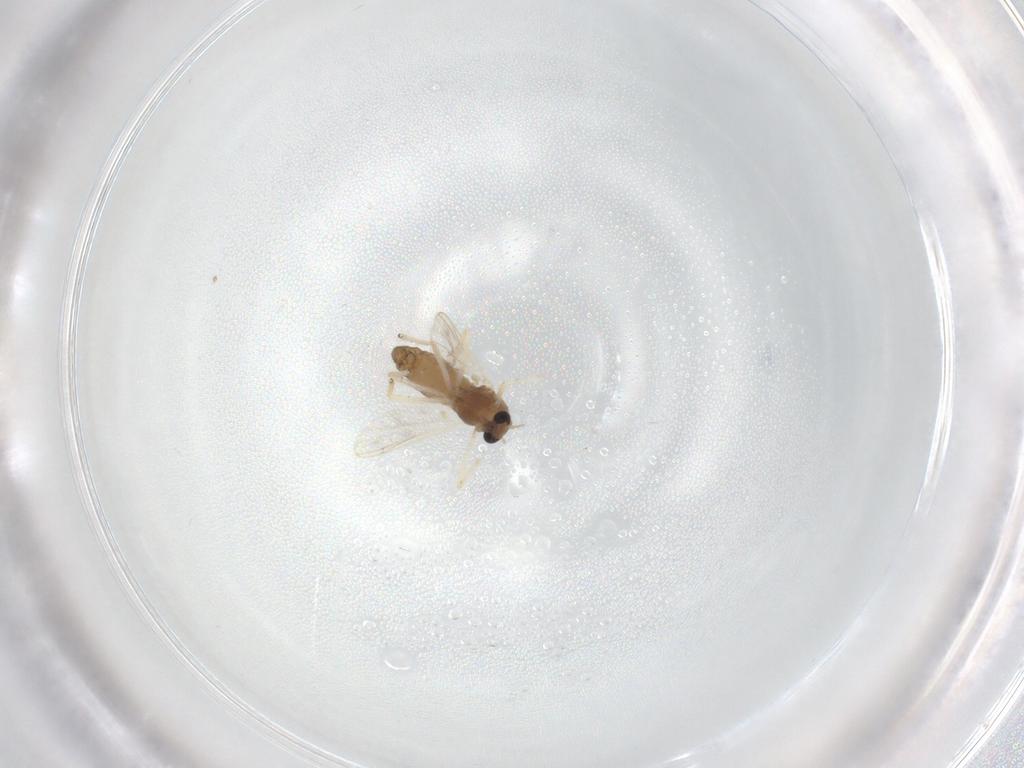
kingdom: Animalia
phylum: Arthropoda
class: Insecta
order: Diptera
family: Chironomidae
